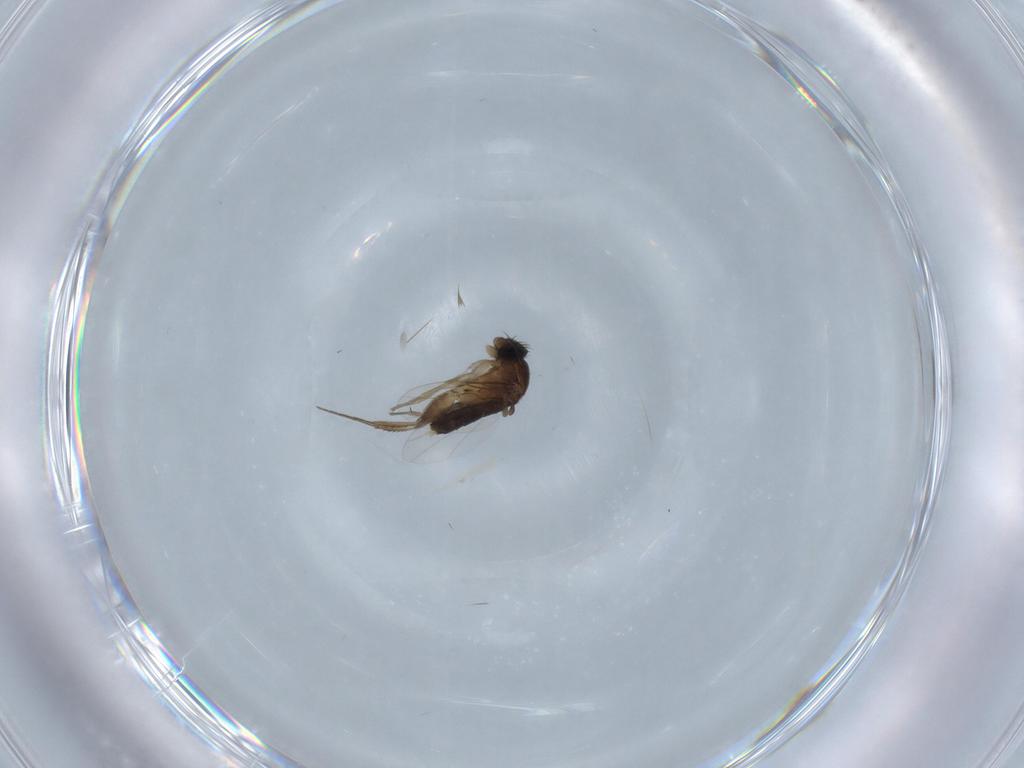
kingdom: Animalia
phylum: Arthropoda
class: Insecta
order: Diptera
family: Phoridae
